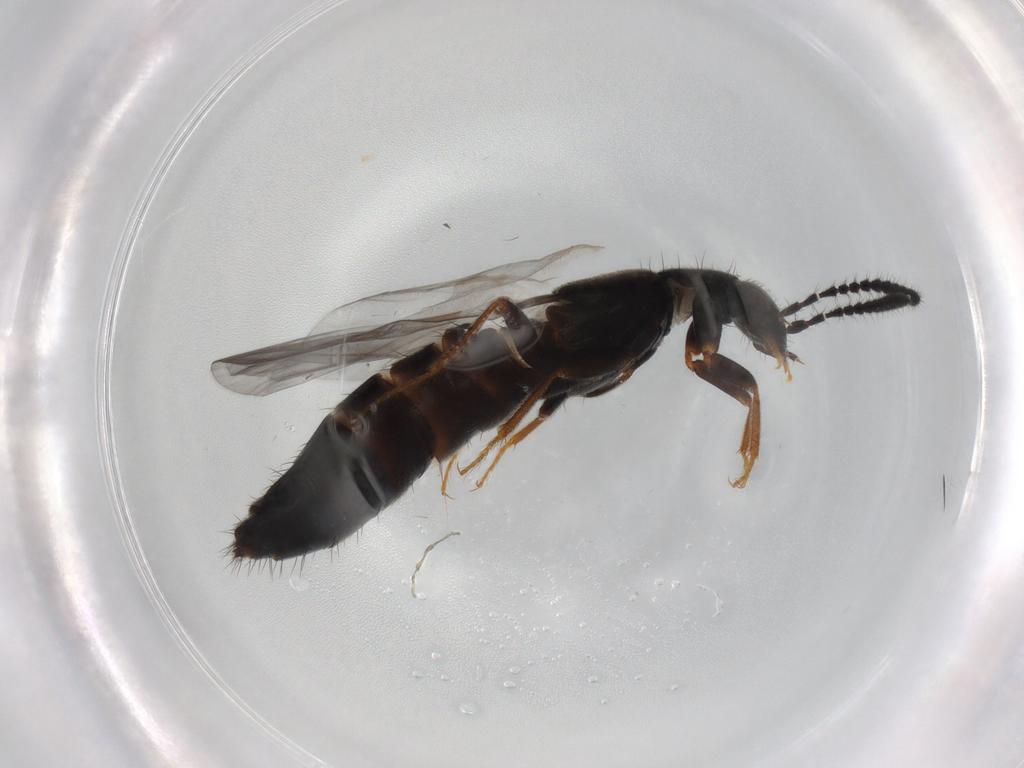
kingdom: Animalia
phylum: Arthropoda
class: Insecta
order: Coleoptera
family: Staphylinidae
